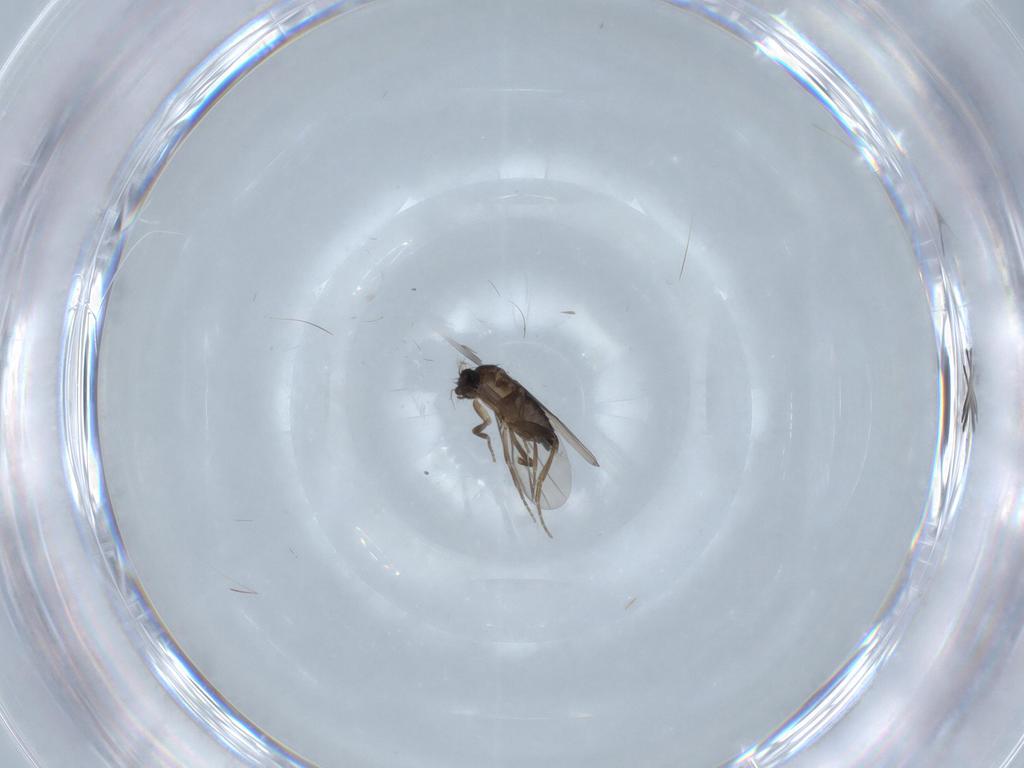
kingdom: Animalia
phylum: Arthropoda
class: Insecta
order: Diptera
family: Phoridae
